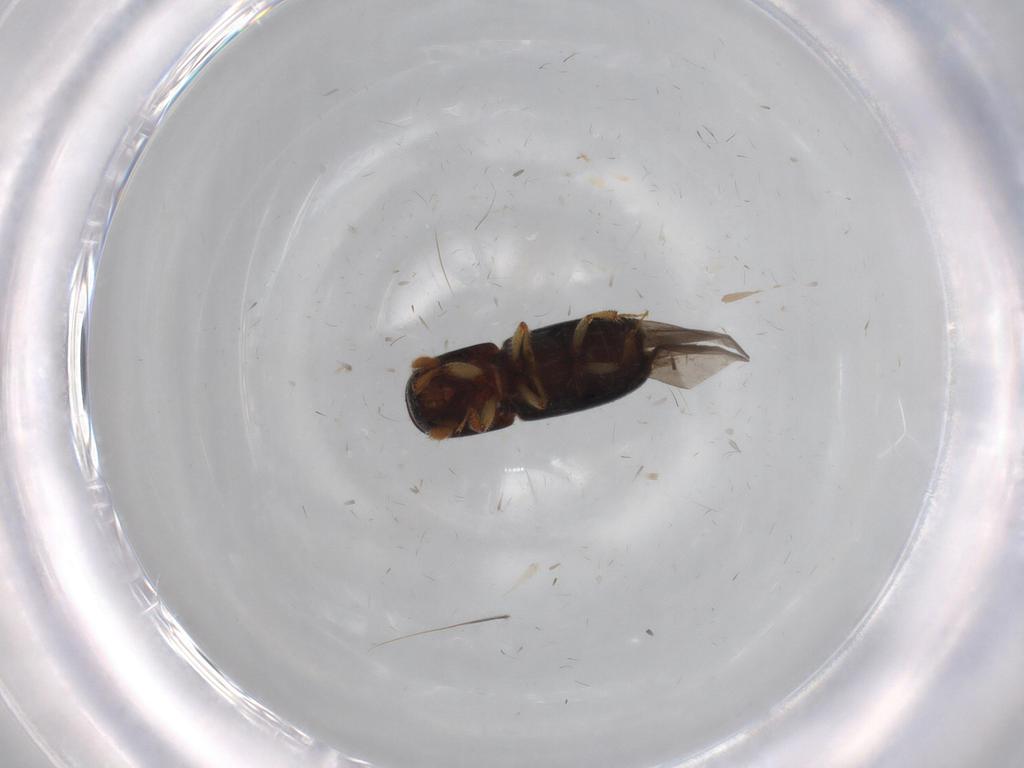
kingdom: Animalia
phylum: Arthropoda
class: Insecta
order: Coleoptera
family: Curculionidae
